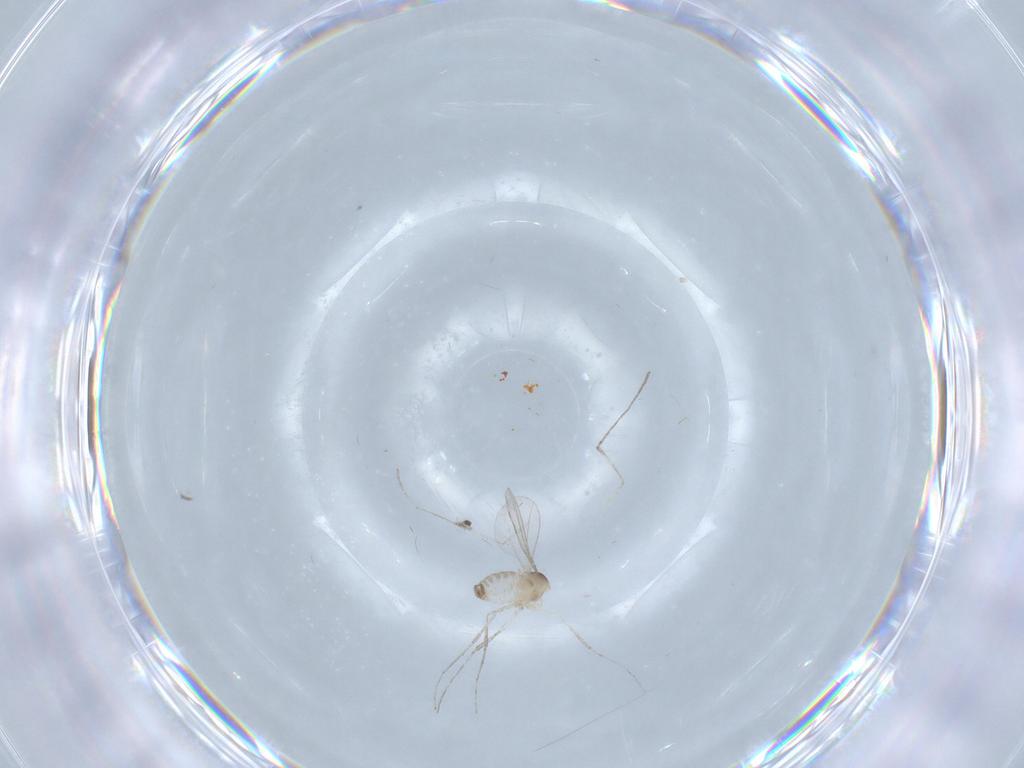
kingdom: Animalia
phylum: Arthropoda
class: Insecta
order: Diptera
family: Cecidomyiidae
